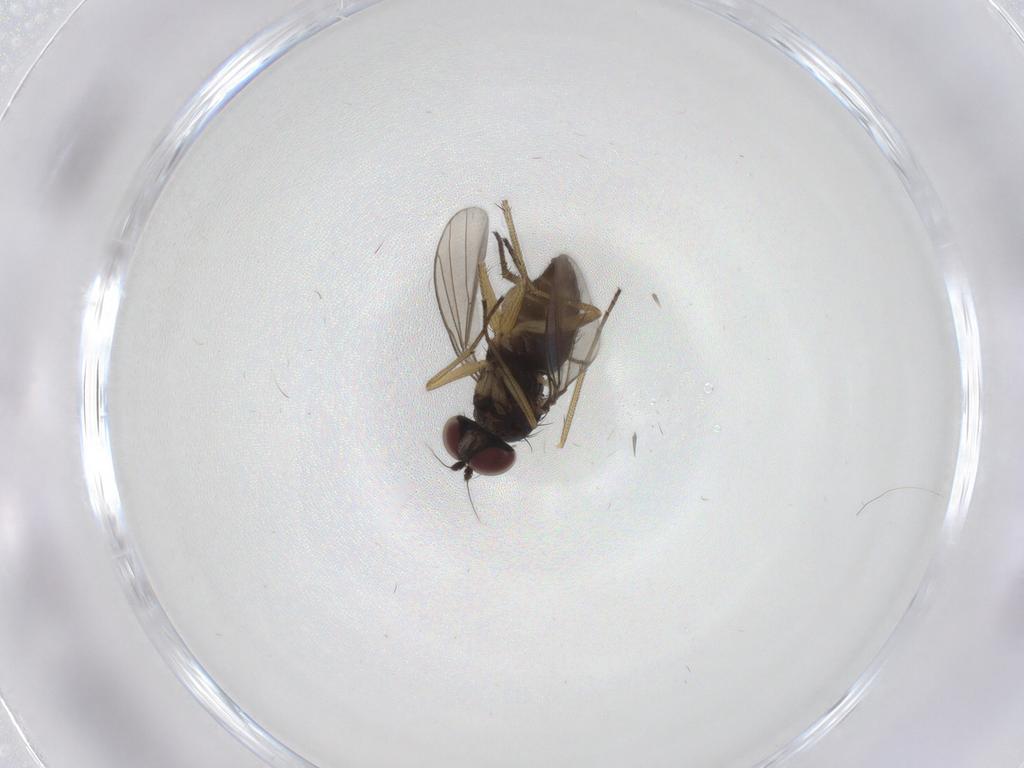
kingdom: Animalia
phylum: Arthropoda
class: Insecta
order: Diptera
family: Dolichopodidae
